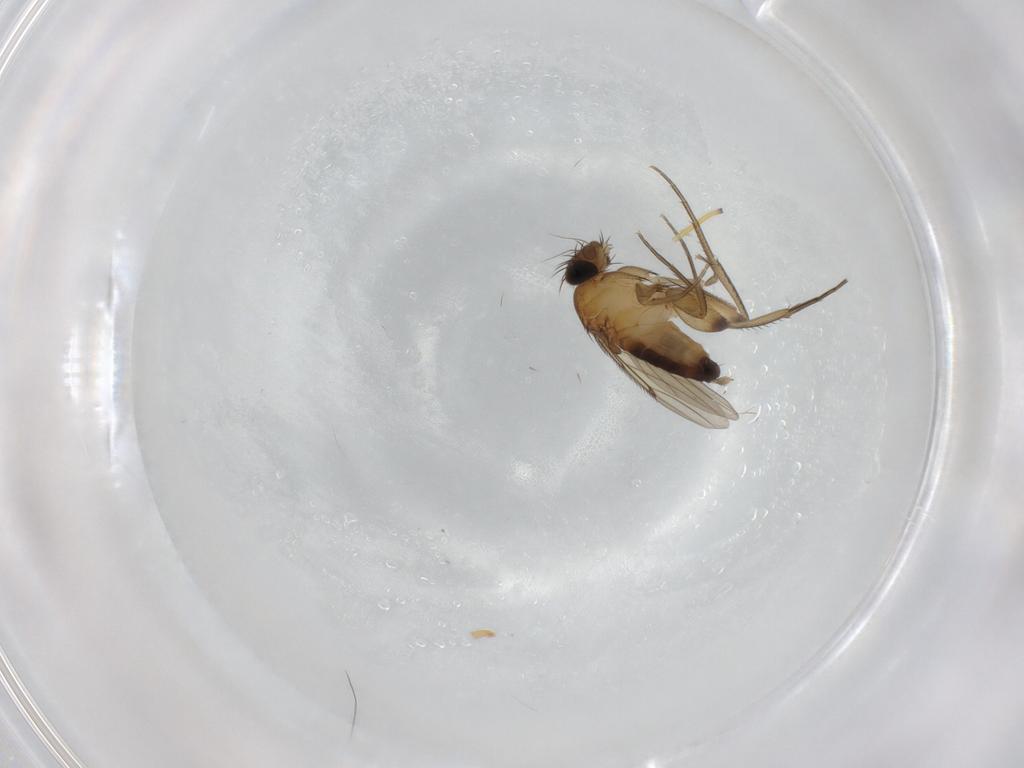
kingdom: Animalia
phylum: Arthropoda
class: Insecta
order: Diptera
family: Phoridae
